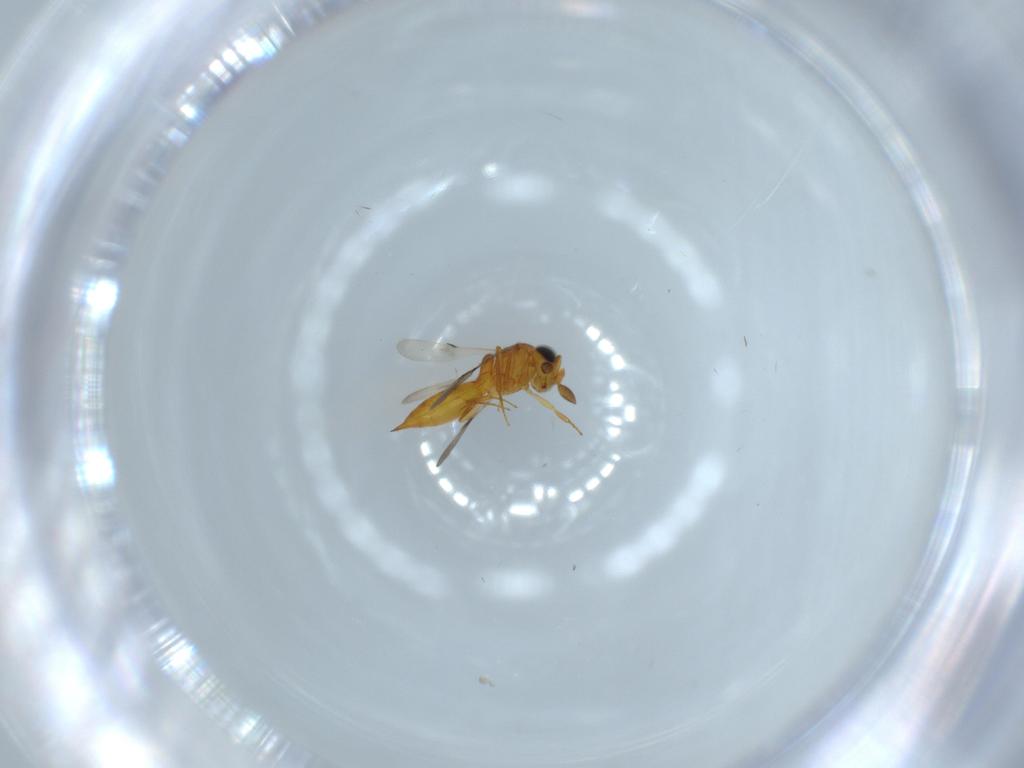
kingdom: Animalia
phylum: Arthropoda
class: Insecta
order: Hymenoptera
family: Scelionidae
